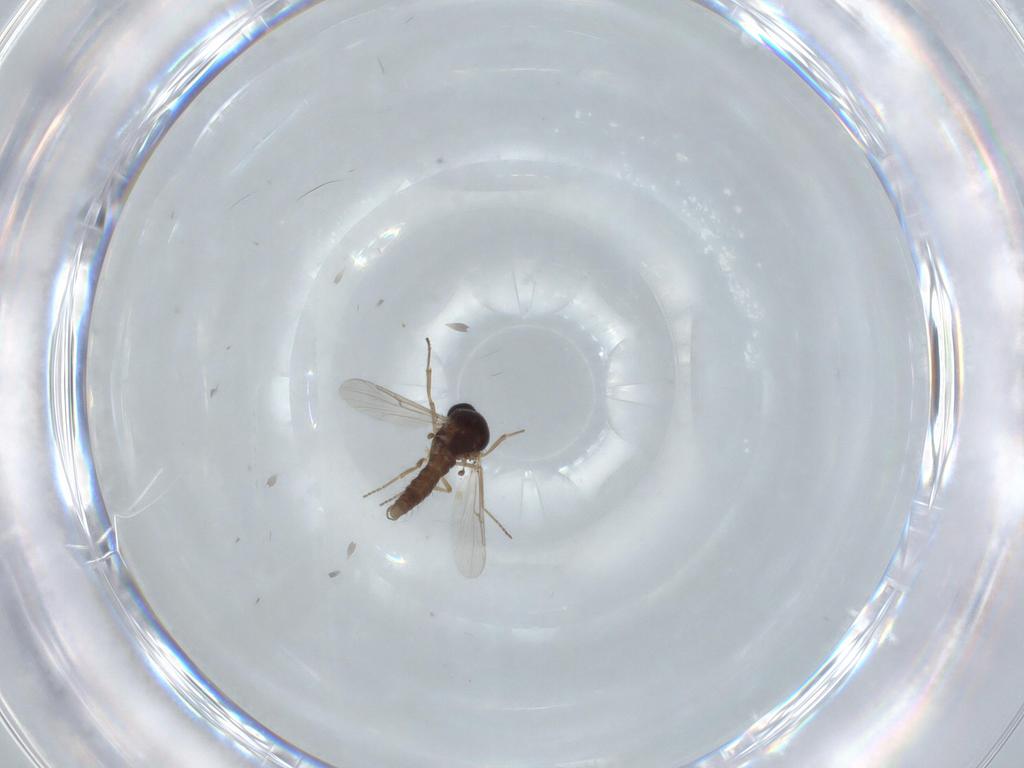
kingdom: Animalia
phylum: Arthropoda
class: Insecta
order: Diptera
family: Ceratopogonidae
